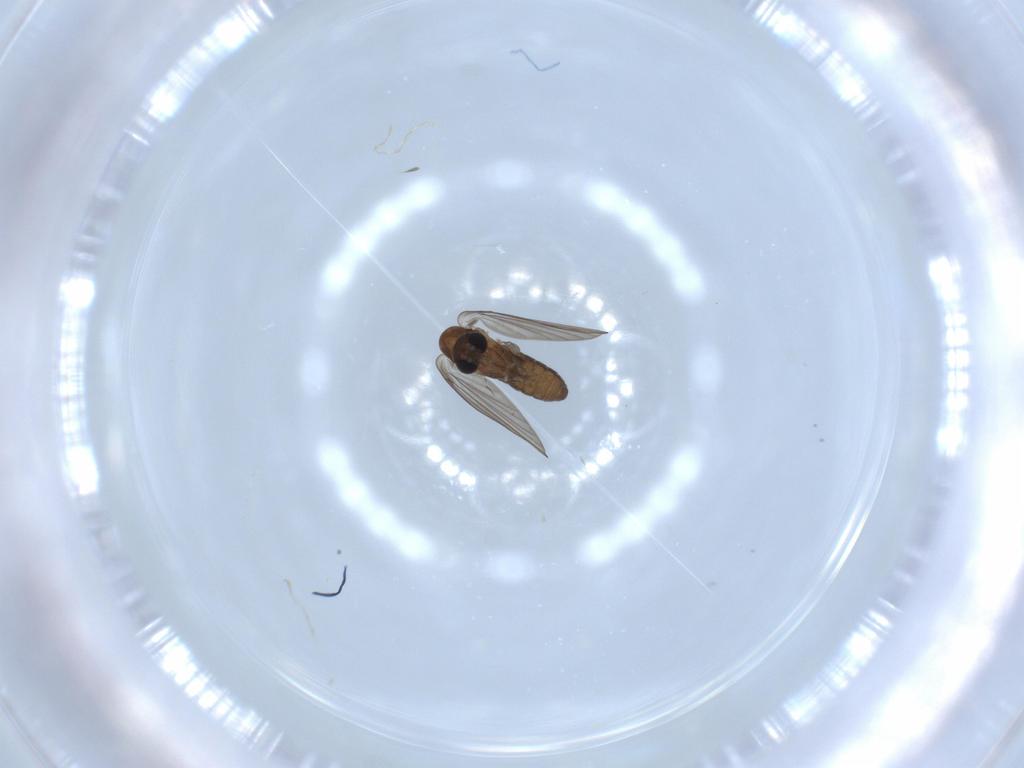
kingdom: Animalia
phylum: Arthropoda
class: Insecta
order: Diptera
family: Psychodidae
